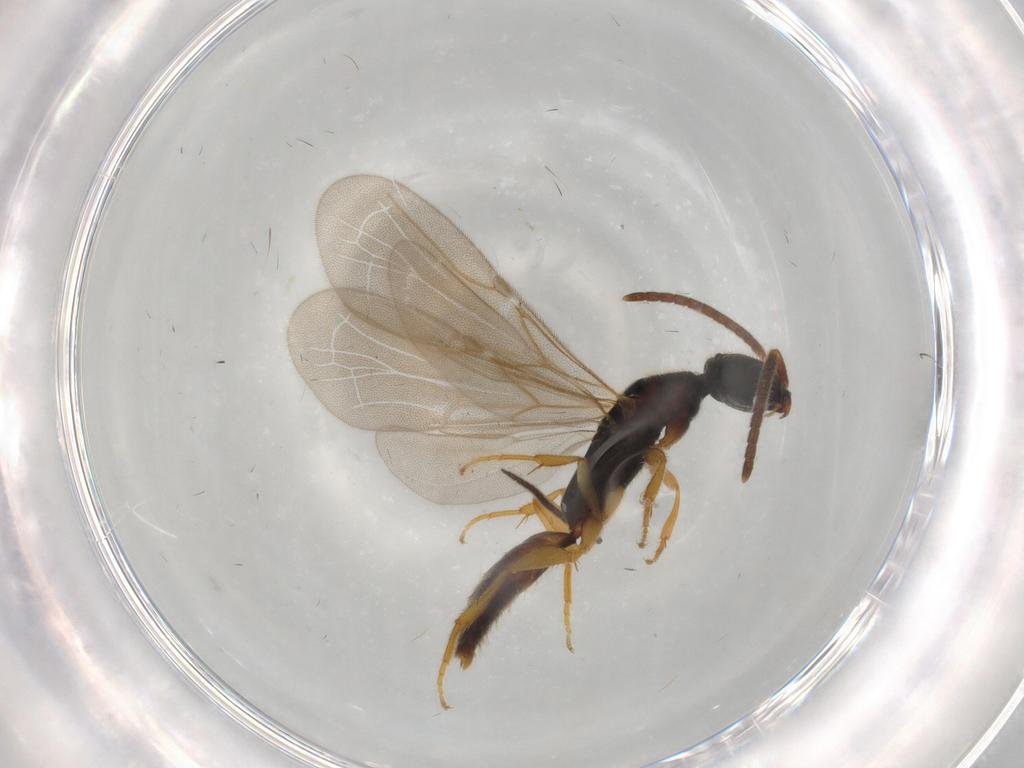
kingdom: Animalia
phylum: Arthropoda
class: Insecta
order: Hymenoptera
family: Bethylidae
